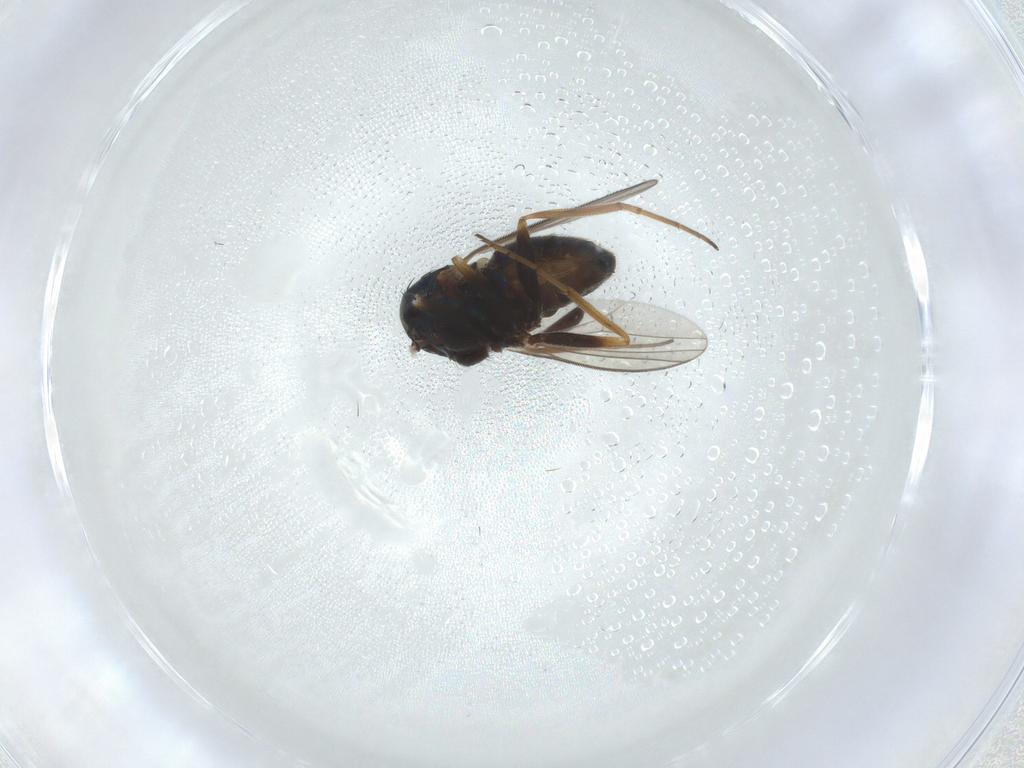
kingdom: Animalia
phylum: Arthropoda
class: Insecta
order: Diptera
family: Dolichopodidae
